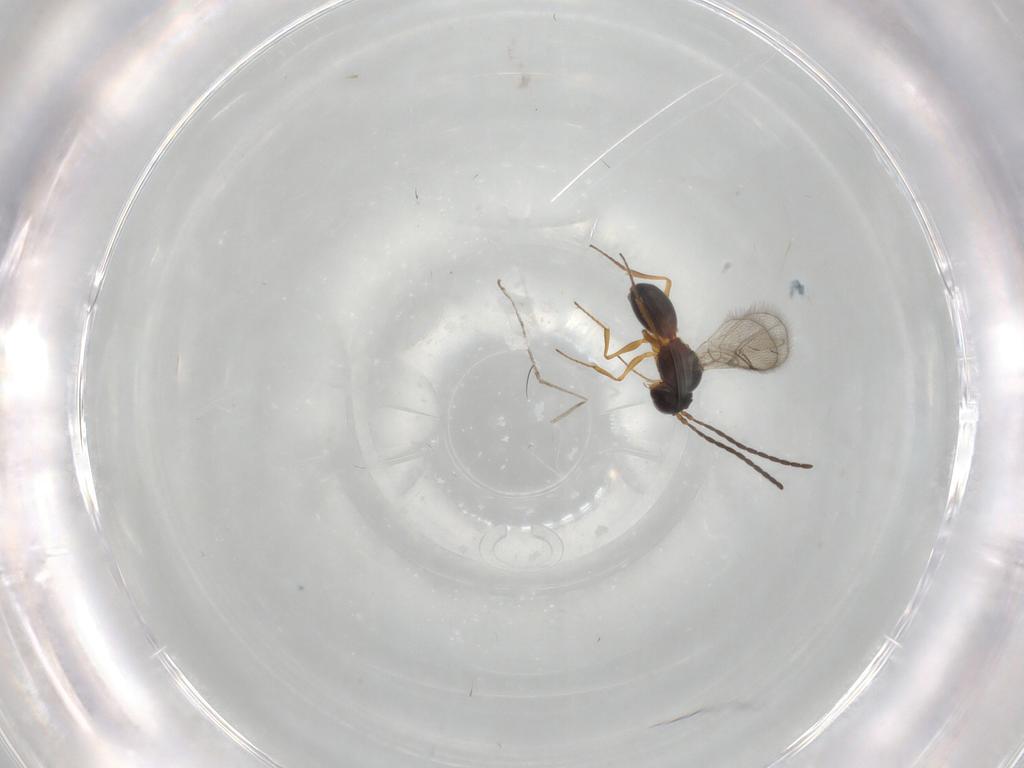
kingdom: Animalia
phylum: Arthropoda
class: Insecta
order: Hymenoptera
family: Figitidae
